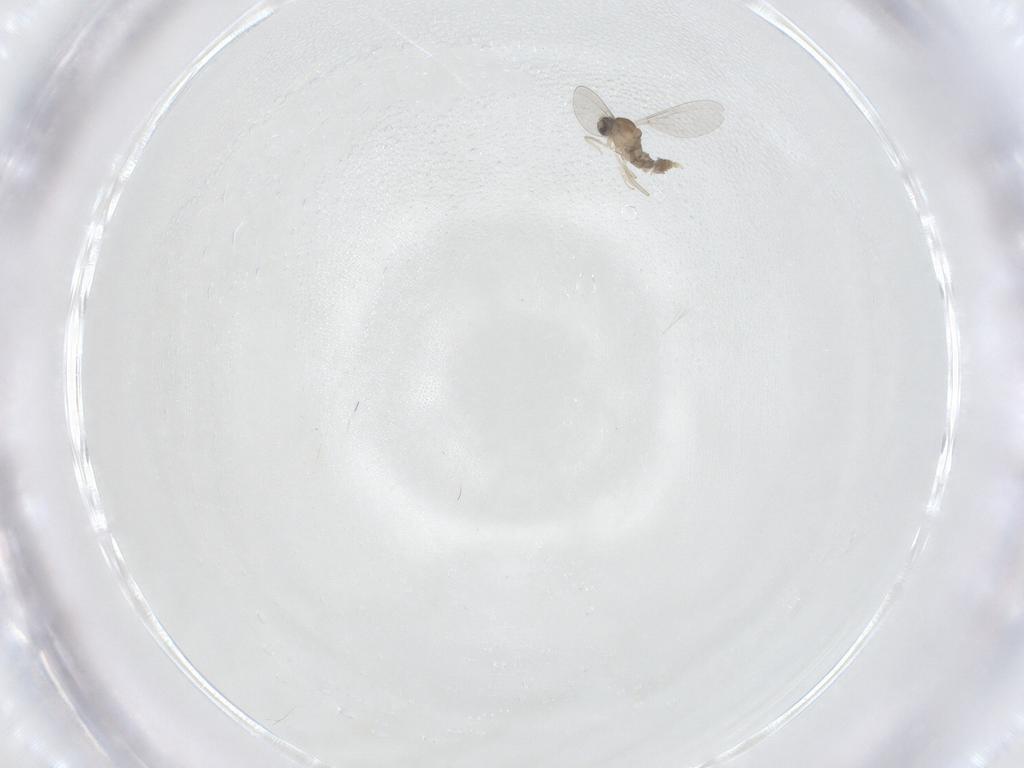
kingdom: Animalia
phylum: Arthropoda
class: Insecta
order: Diptera
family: Cecidomyiidae
